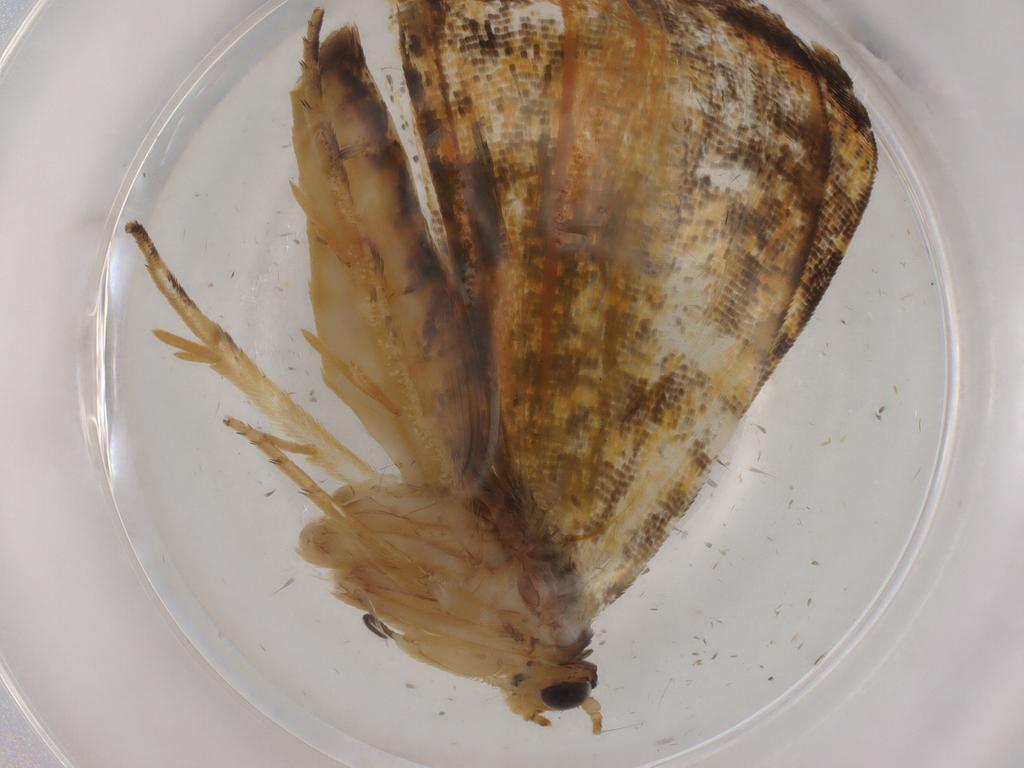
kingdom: Animalia
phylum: Arthropoda
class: Insecta
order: Lepidoptera
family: Tortricidae
